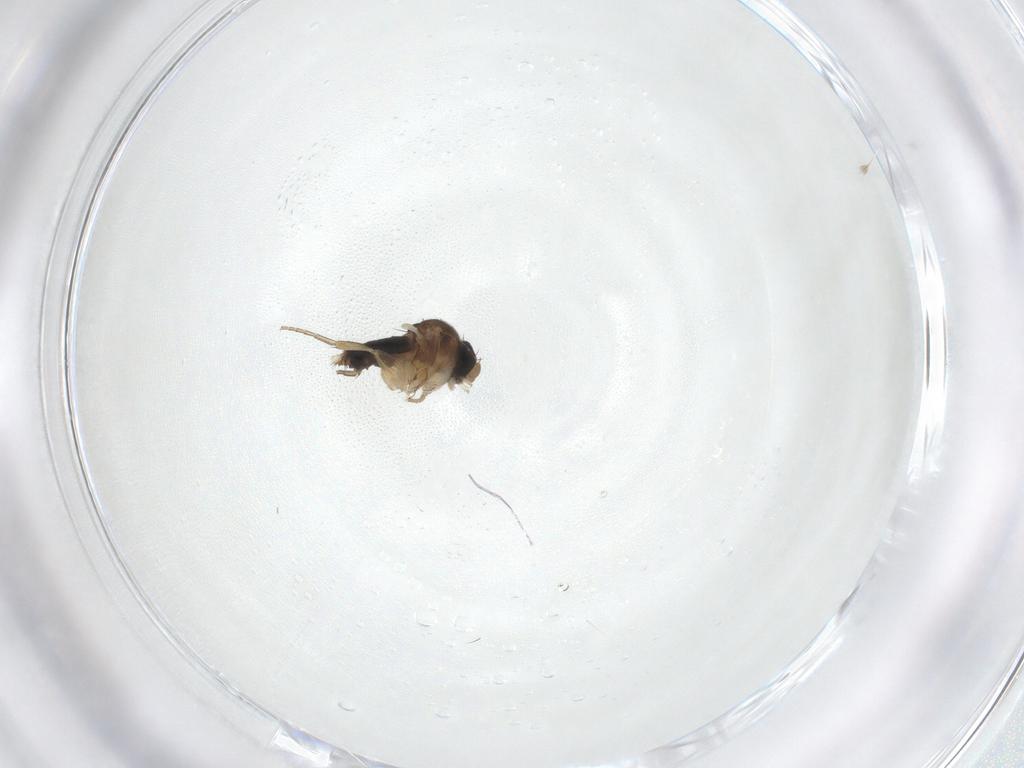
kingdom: Animalia
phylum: Arthropoda
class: Insecta
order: Diptera
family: Phoridae
